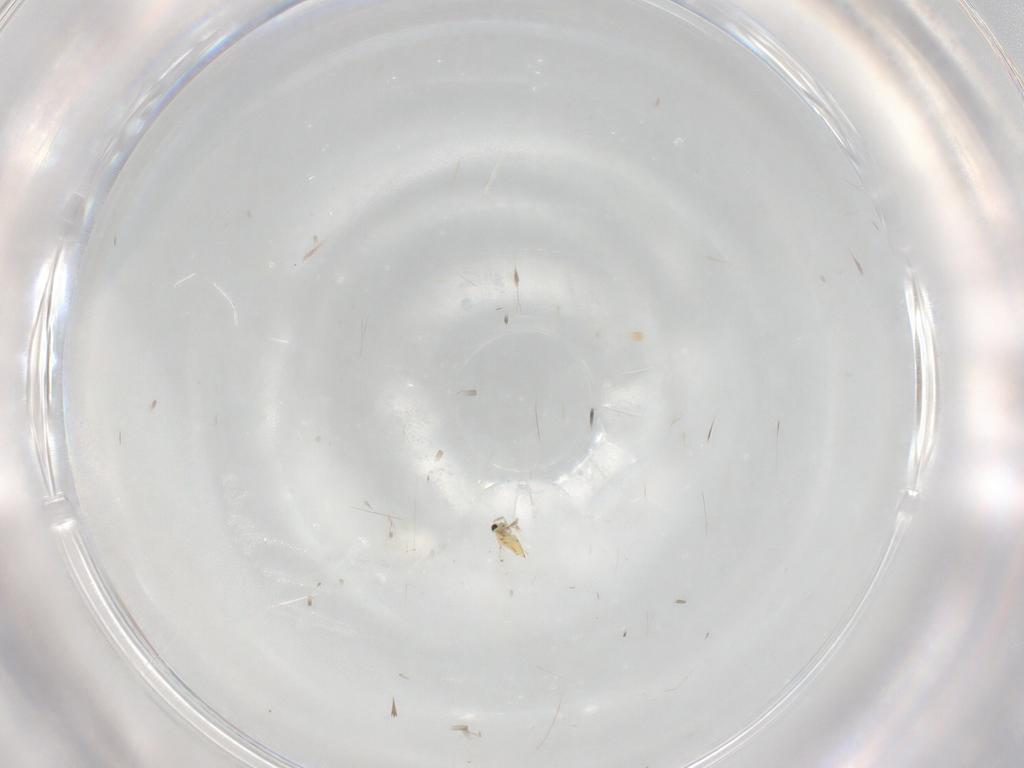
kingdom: Animalia
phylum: Arthropoda
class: Insecta
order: Hymenoptera
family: Trichogrammatidae
